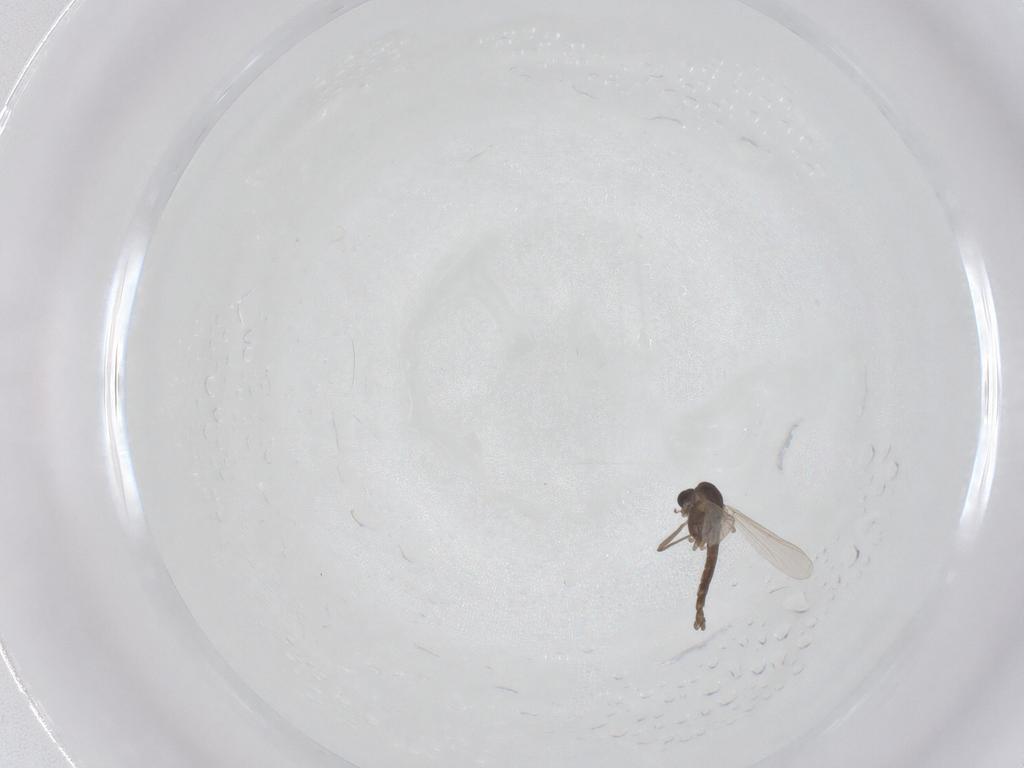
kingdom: Animalia
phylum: Arthropoda
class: Insecta
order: Diptera
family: Chironomidae
